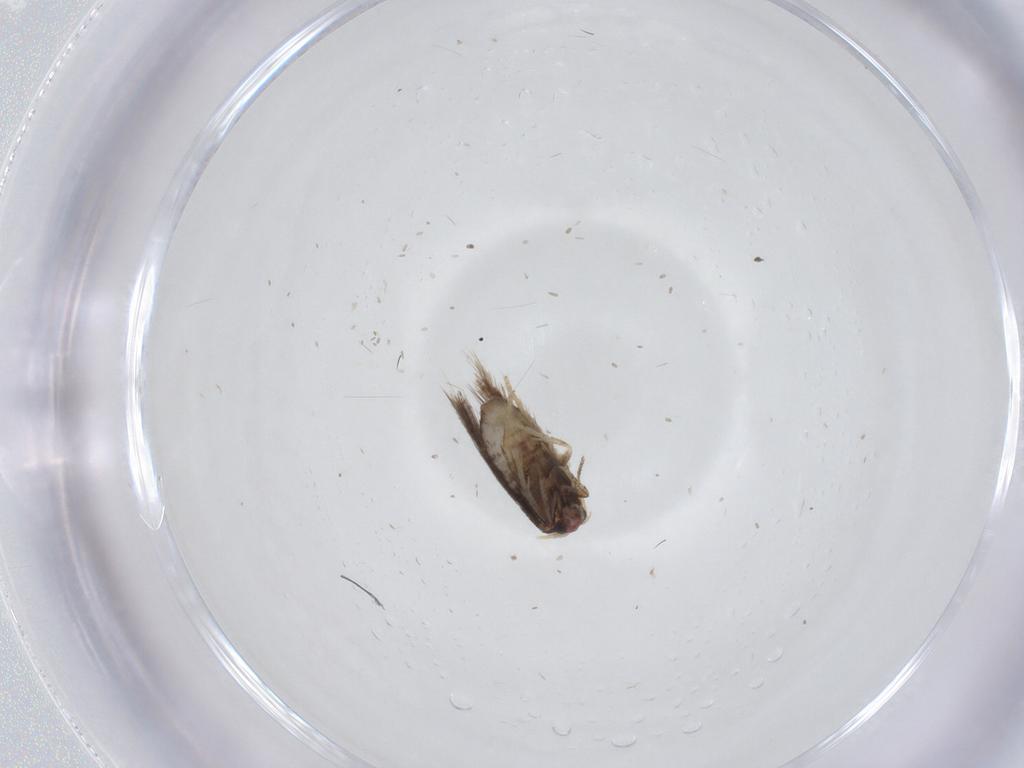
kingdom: Animalia
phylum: Arthropoda
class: Insecta
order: Lepidoptera
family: Nepticulidae
